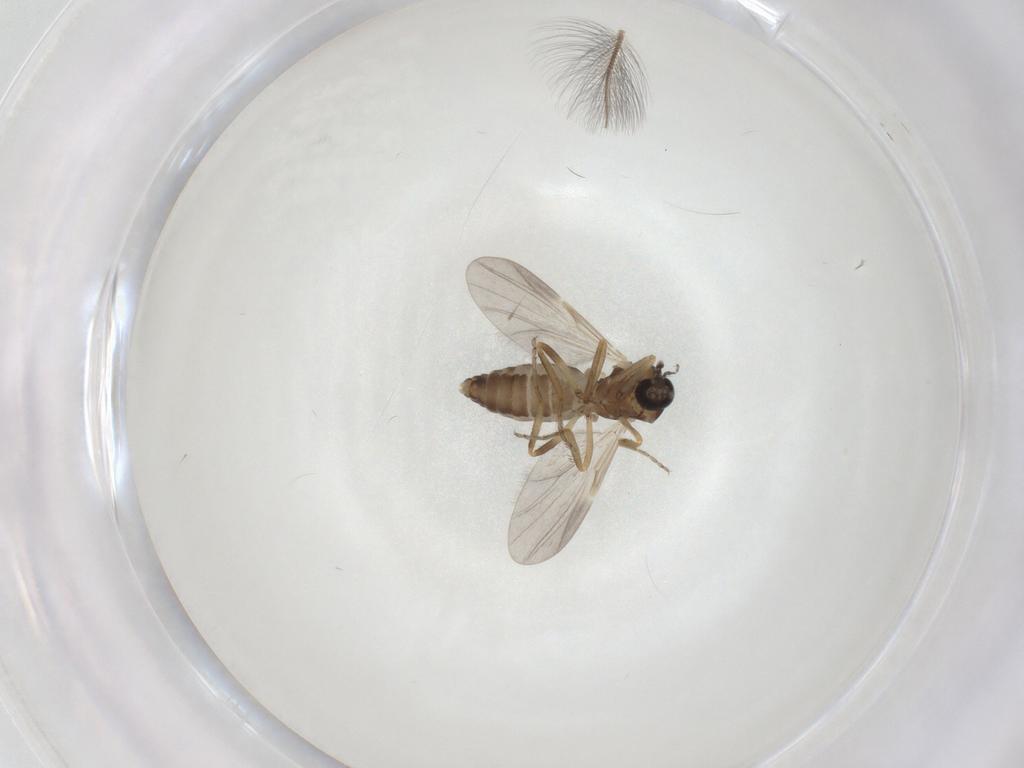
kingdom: Animalia
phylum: Arthropoda
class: Insecta
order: Diptera
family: Ceratopogonidae
